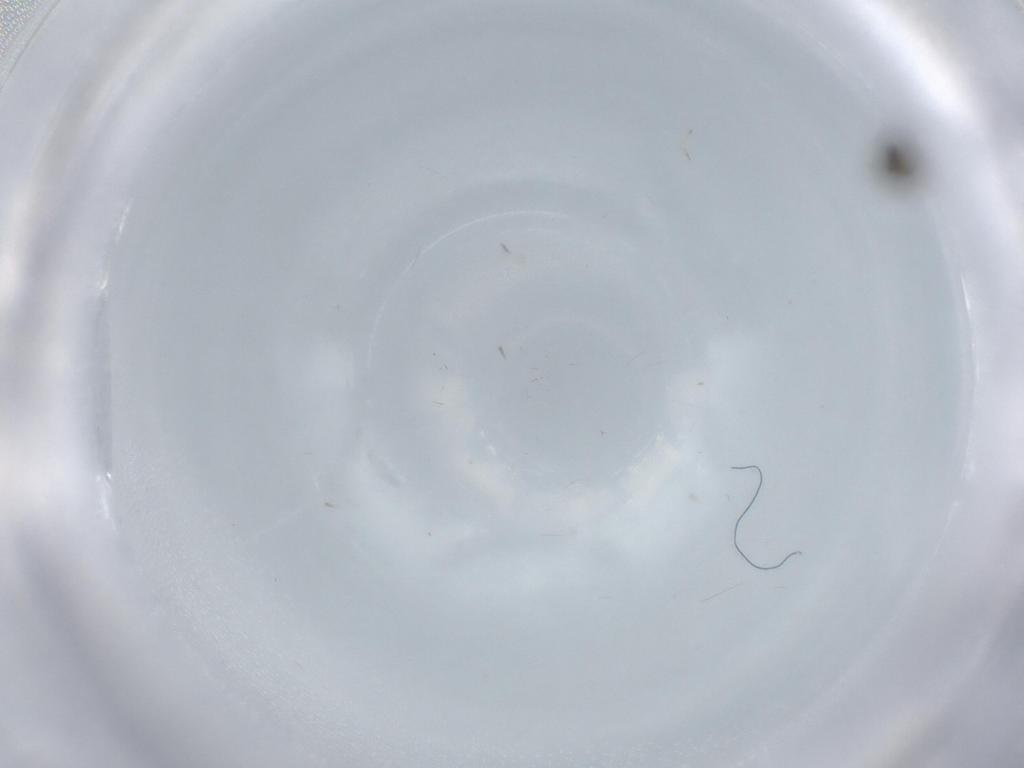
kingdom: Animalia
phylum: Arthropoda
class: Insecta
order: Hymenoptera
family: Eulophidae
